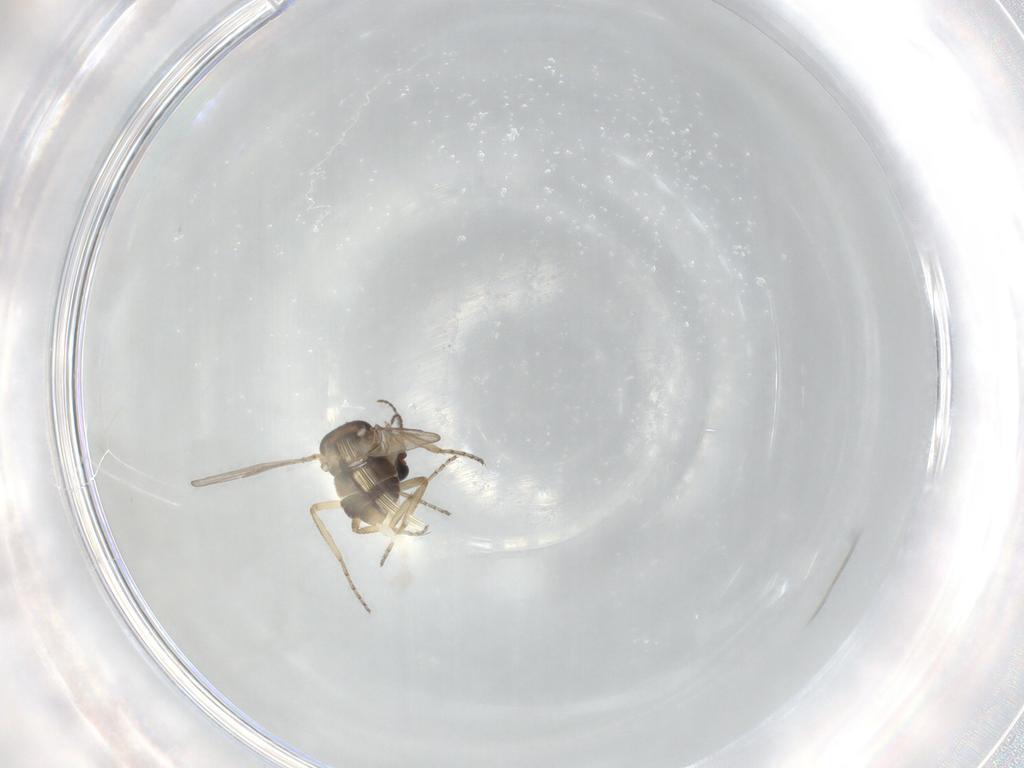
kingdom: Animalia
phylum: Arthropoda
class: Insecta
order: Diptera
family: Ceratopogonidae
